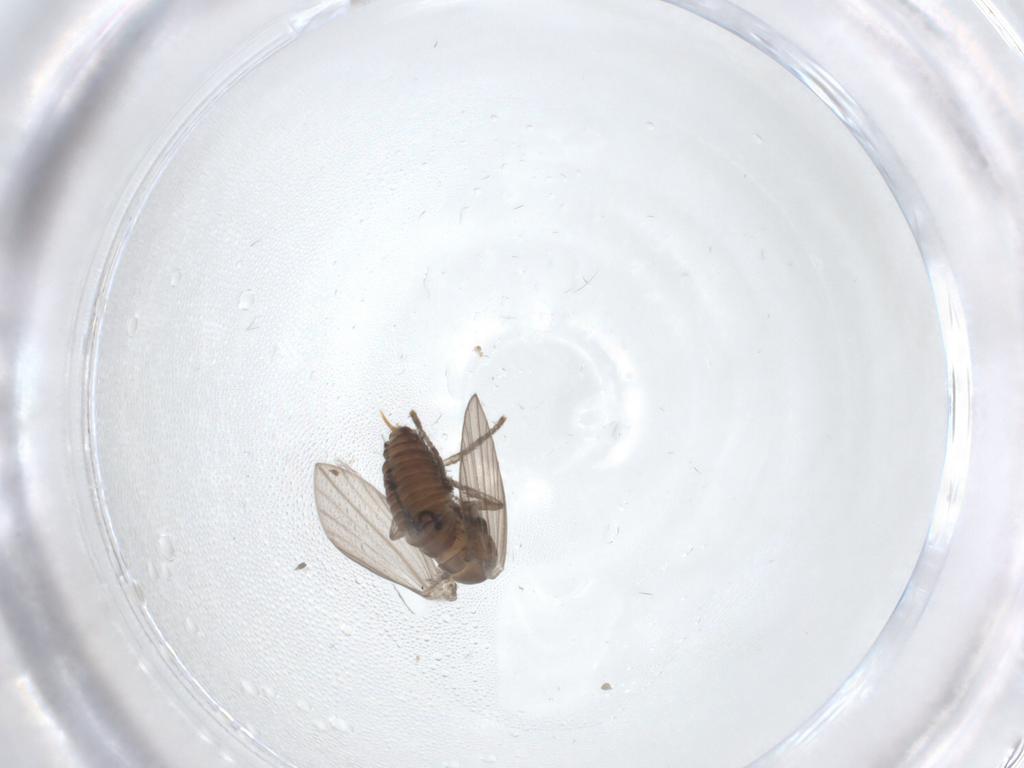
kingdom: Animalia
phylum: Arthropoda
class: Insecta
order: Diptera
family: Psychodidae
